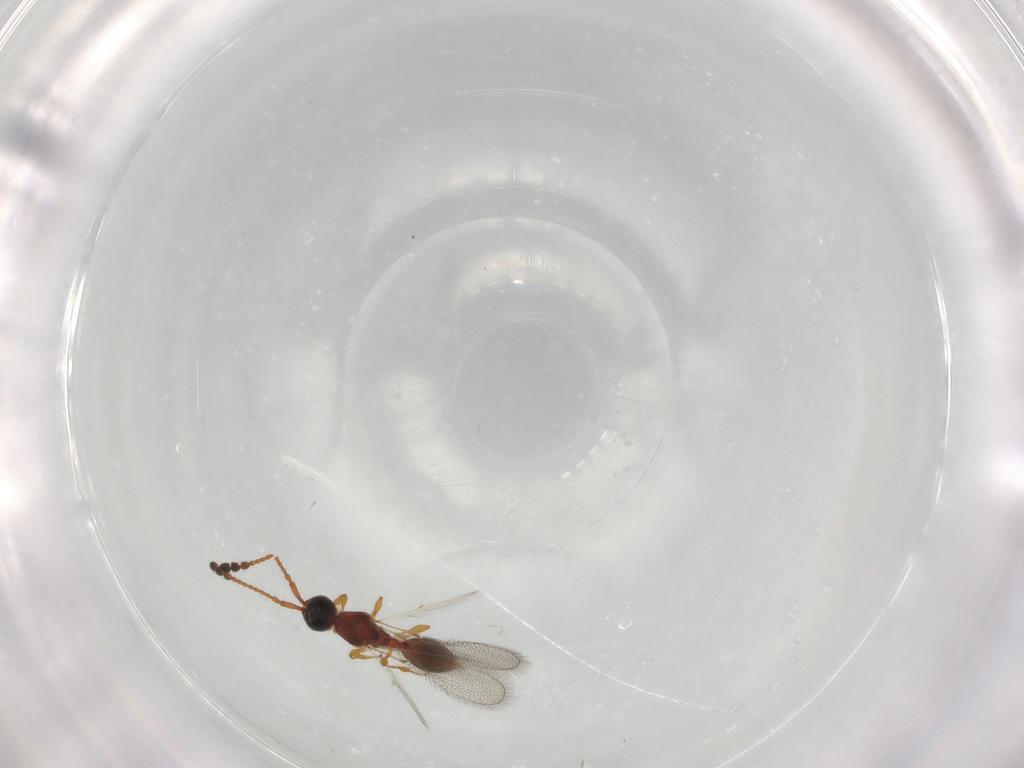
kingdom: Animalia
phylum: Arthropoda
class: Insecta
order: Hymenoptera
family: Diapriidae
